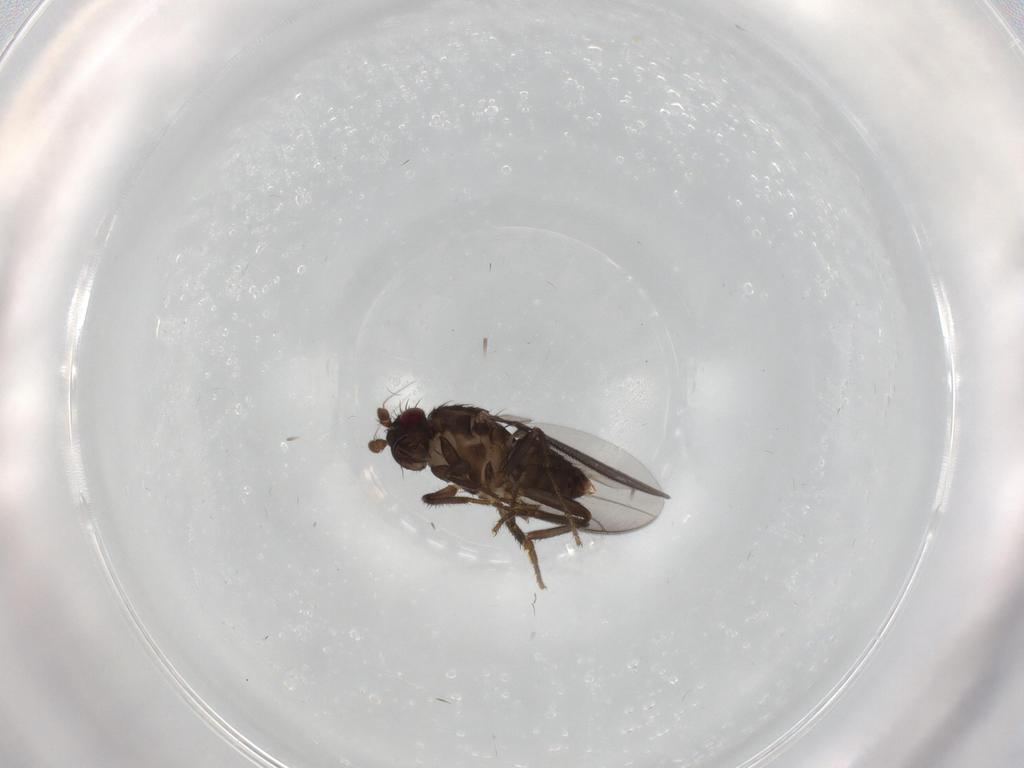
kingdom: Animalia
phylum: Arthropoda
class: Insecta
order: Diptera
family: Sphaeroceridae
